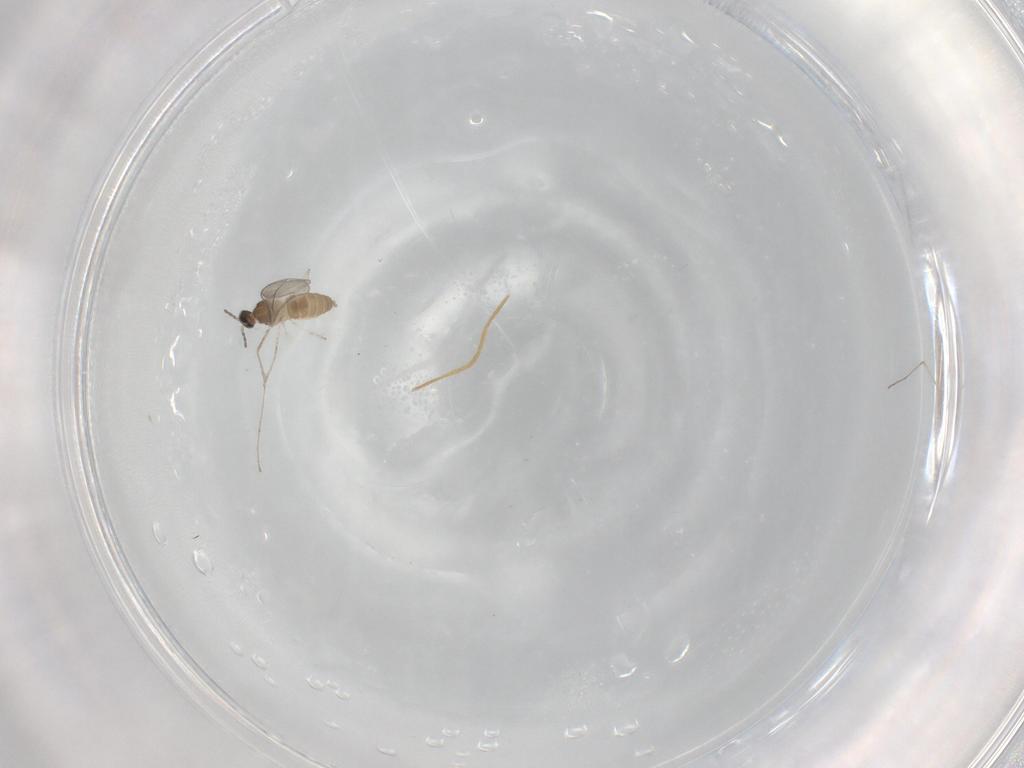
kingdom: Animalia
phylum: Arthropoda
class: Insecta
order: Diptera
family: Cecidomyiidae
